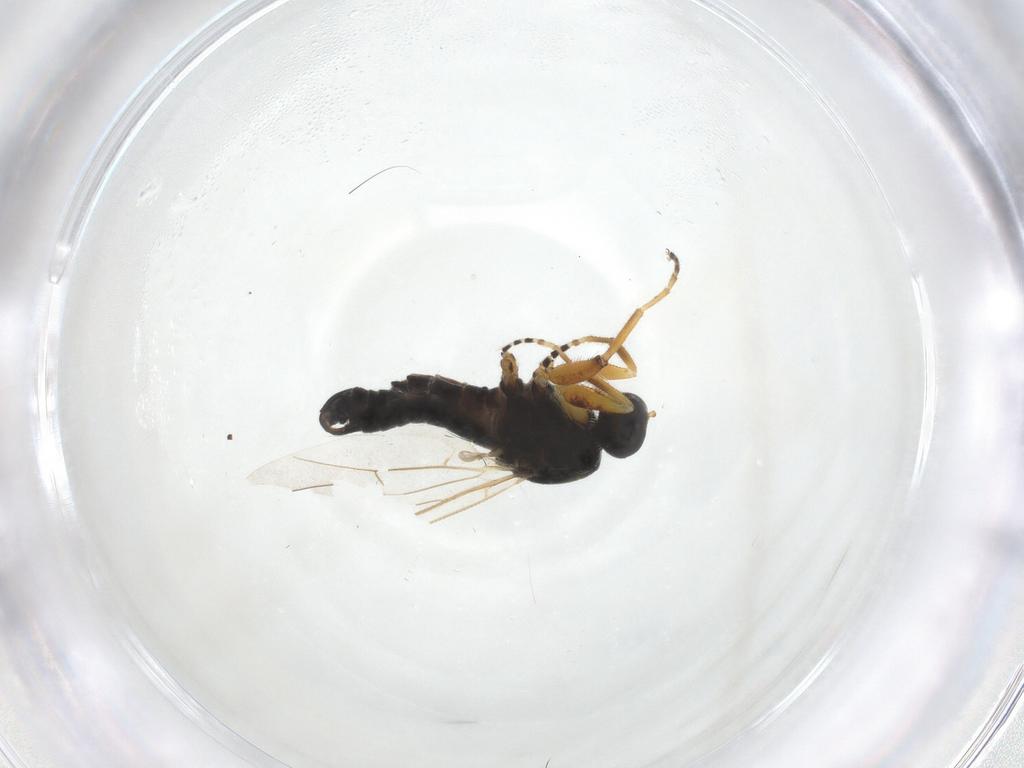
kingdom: Animalia
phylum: Arthropoda
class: Insecta
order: Diptera
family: Hybotidae
